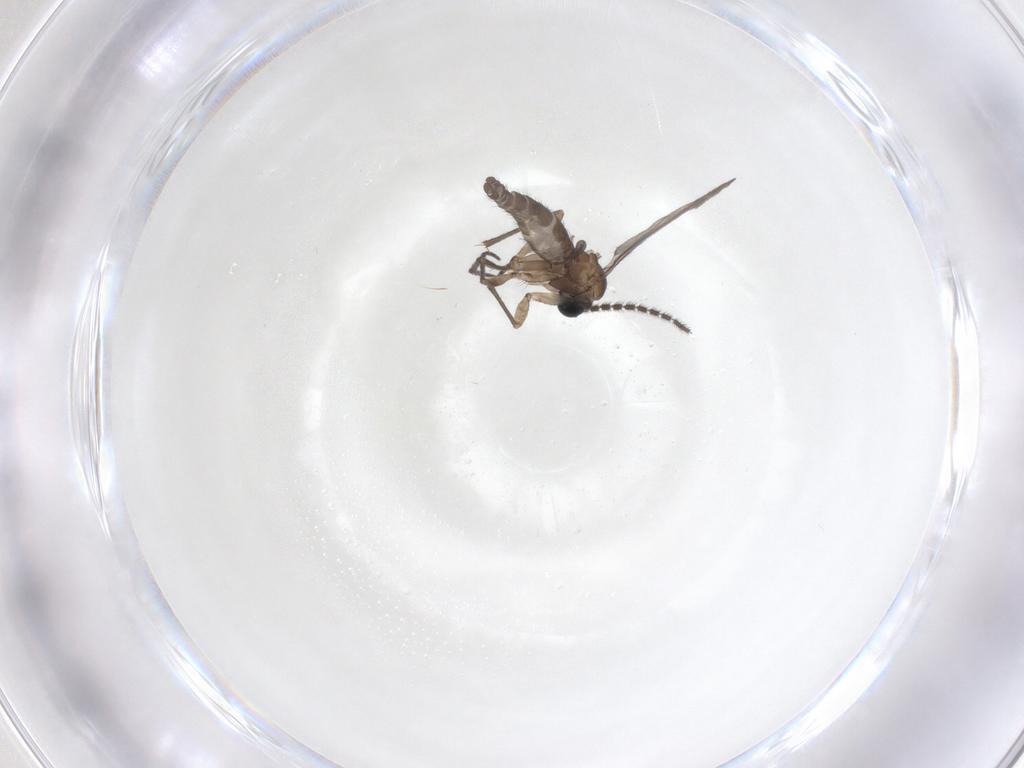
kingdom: Animalia
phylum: Arthropoda
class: Insecta
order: Diptera
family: Sciaridae
